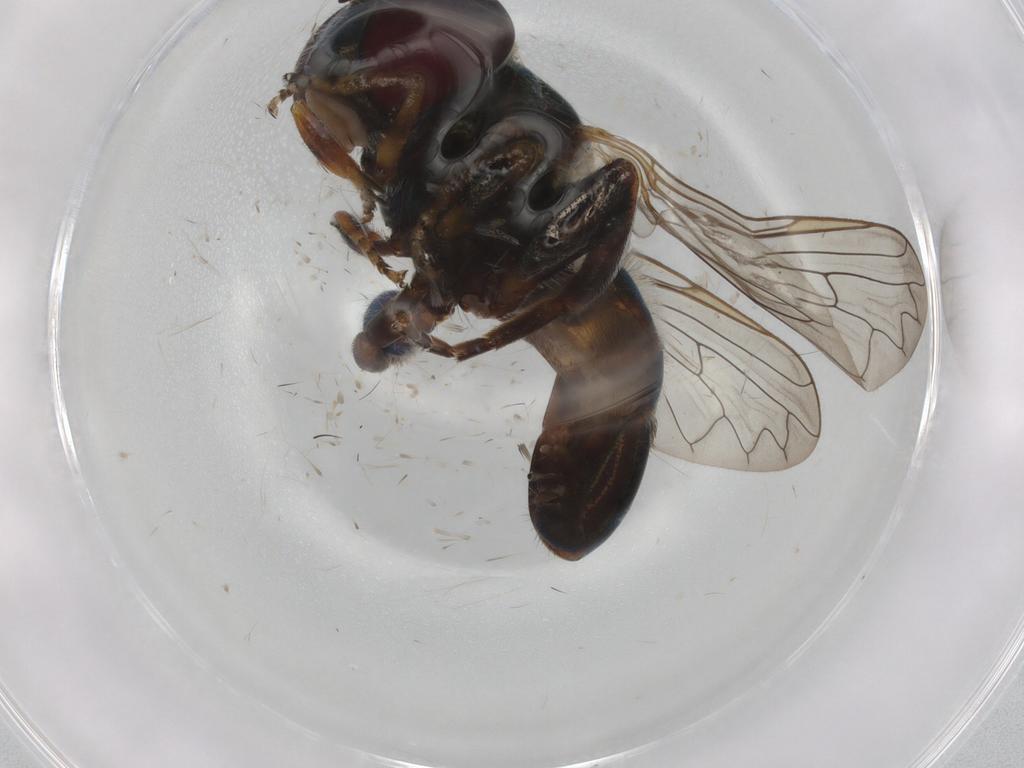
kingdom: Animalia
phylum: Arthropoda
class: Insecta
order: Diptera
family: Syrphidae
